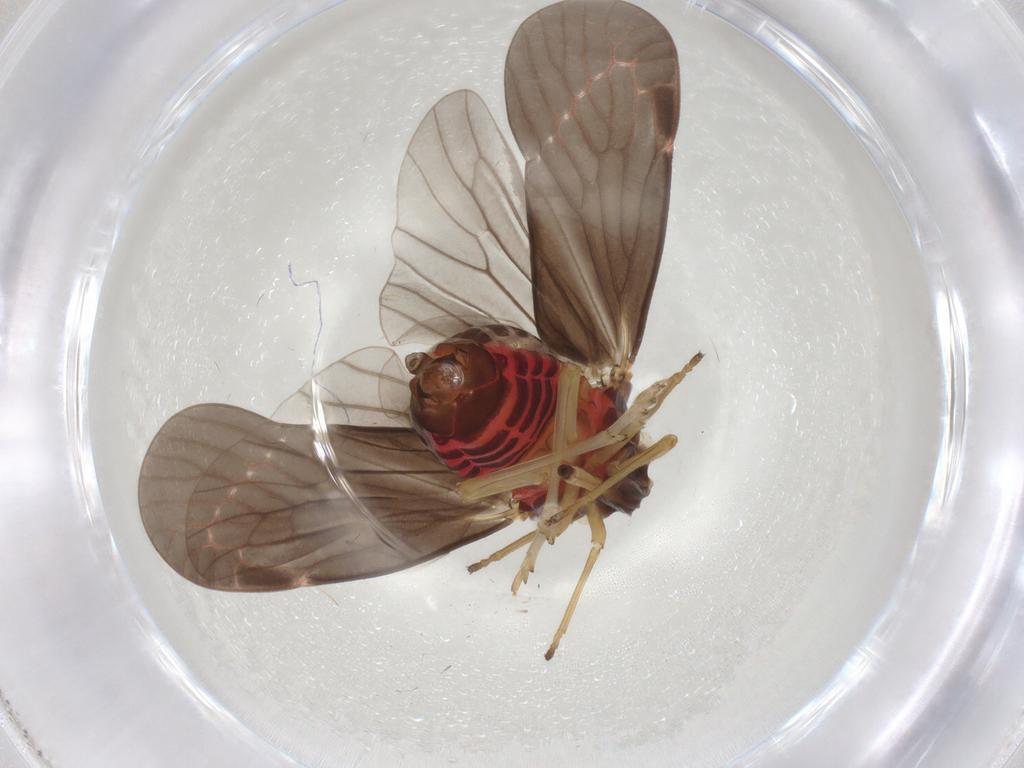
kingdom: Animalia
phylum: Arthropoda
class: Insecta
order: Hemiptera
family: Derbidae
